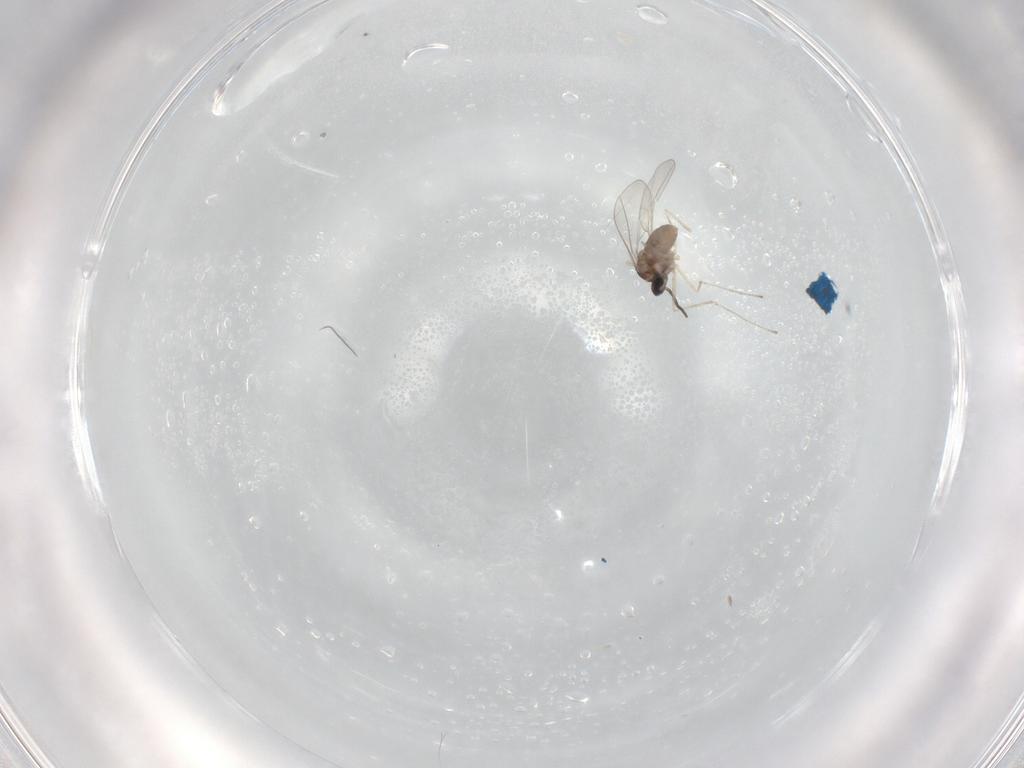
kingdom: Animalia
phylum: Arthropoda
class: Insecta
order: Diptera
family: Cecidomyiidae
